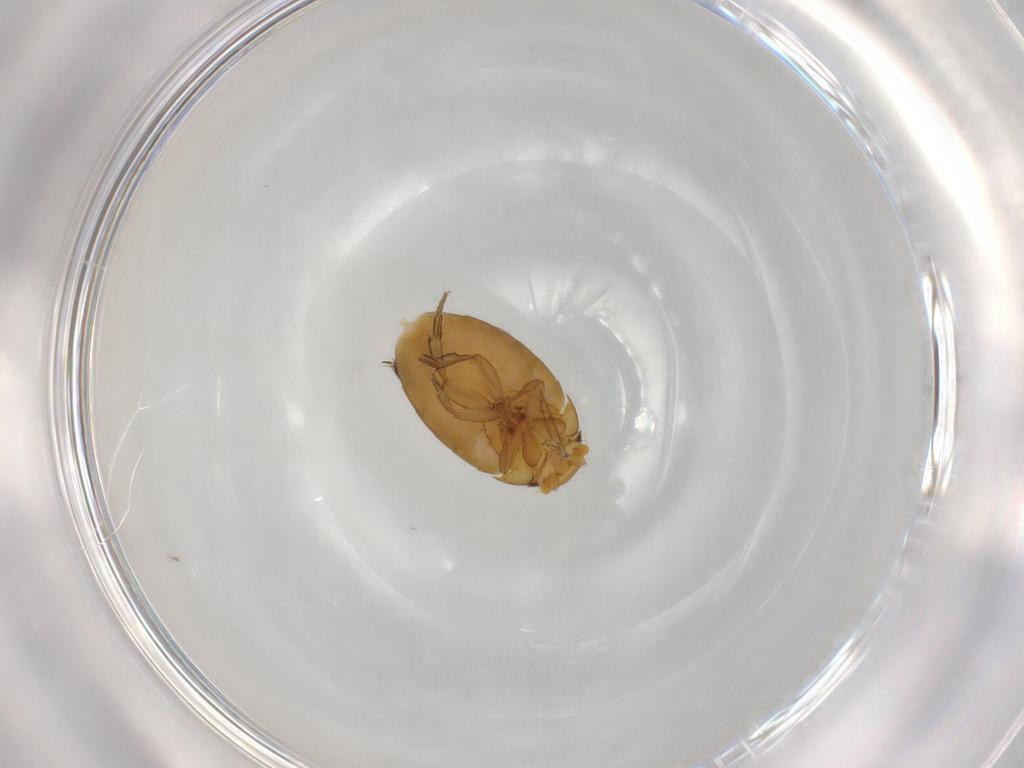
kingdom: Animalia
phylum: Arthropoda
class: Insecta
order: Diptera
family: Phoridae
